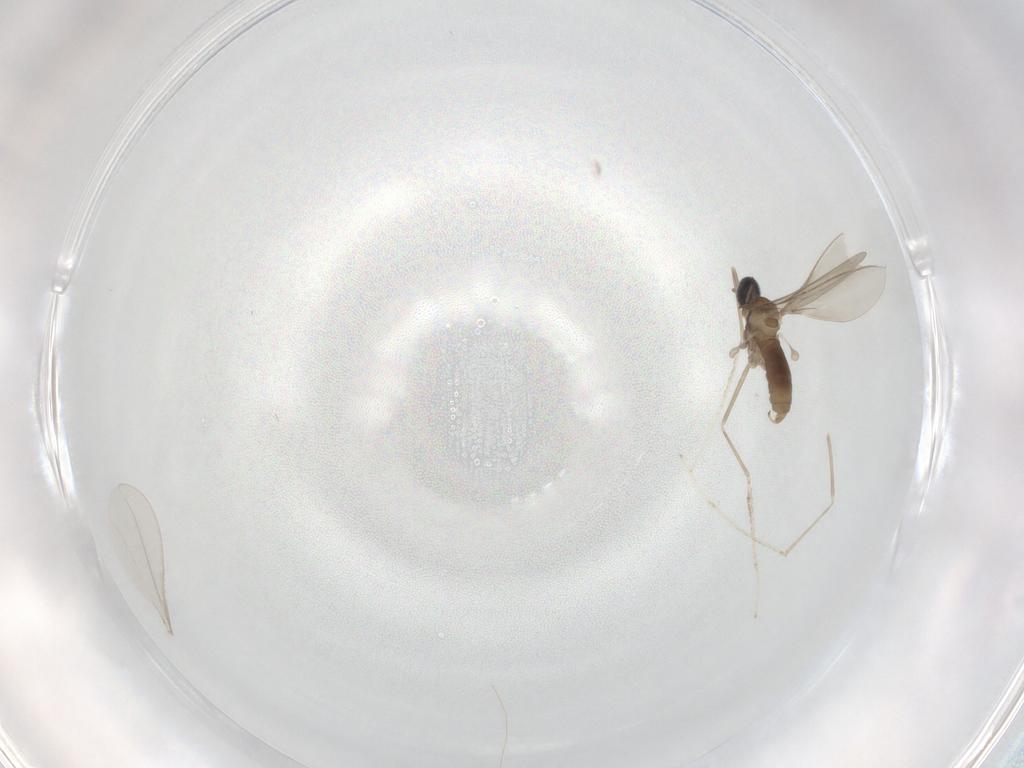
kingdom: Animalia
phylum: Arthropoda
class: Insecta
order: Diptera
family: Cecidomyiidae
